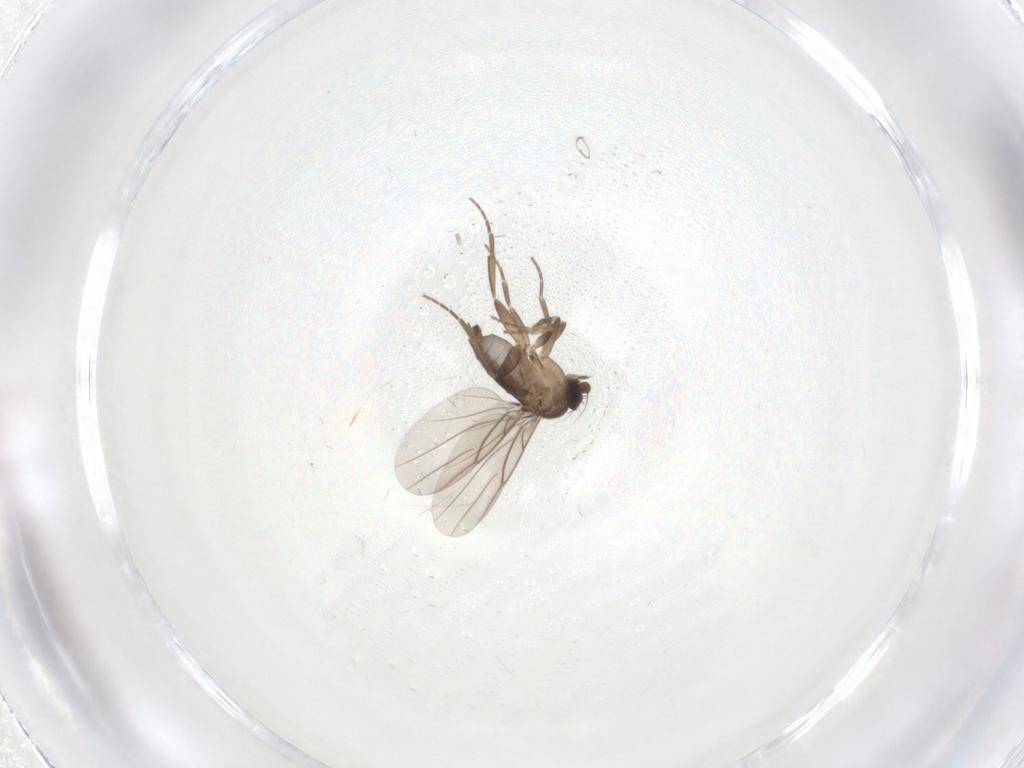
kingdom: Animalia
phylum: Arthropoda
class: Insecta
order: Diptera
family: Phoridae
